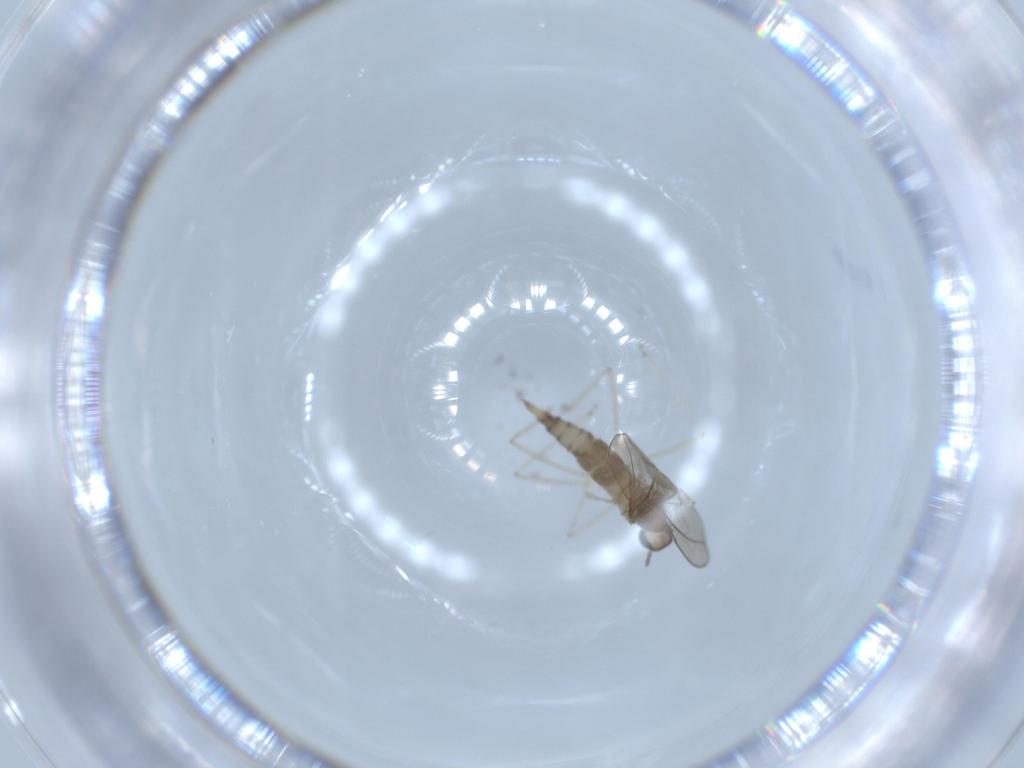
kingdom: Animalia
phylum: Arthropoda
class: Insecta
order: Diptera
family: Cecidomyiidae
